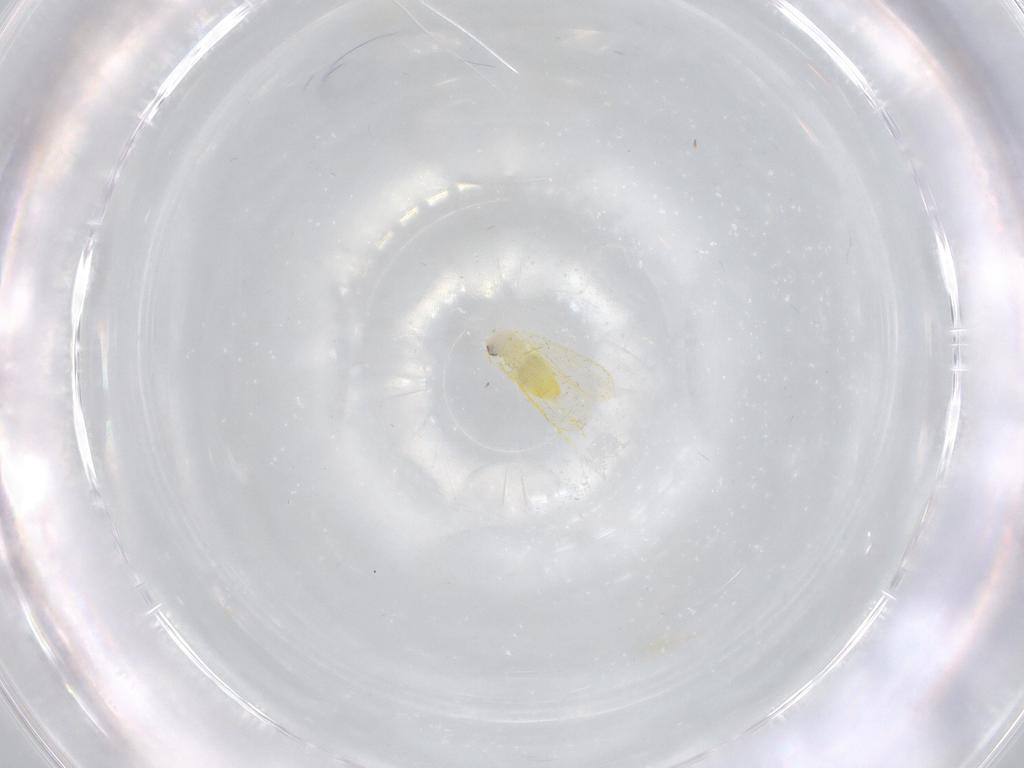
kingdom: Animalia
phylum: Arthropoda
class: Insecta
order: Hemiptera
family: Aleyrodidae
